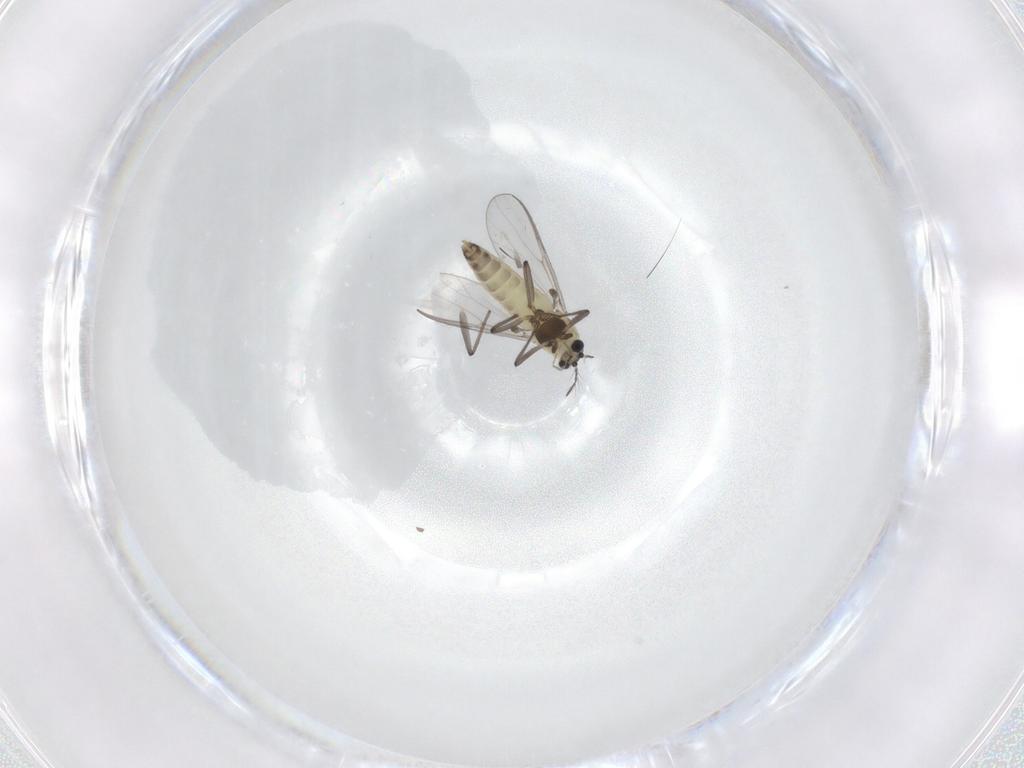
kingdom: Animalia
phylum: Arthropoda
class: Insecta
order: Diptera
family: Chironomidae
